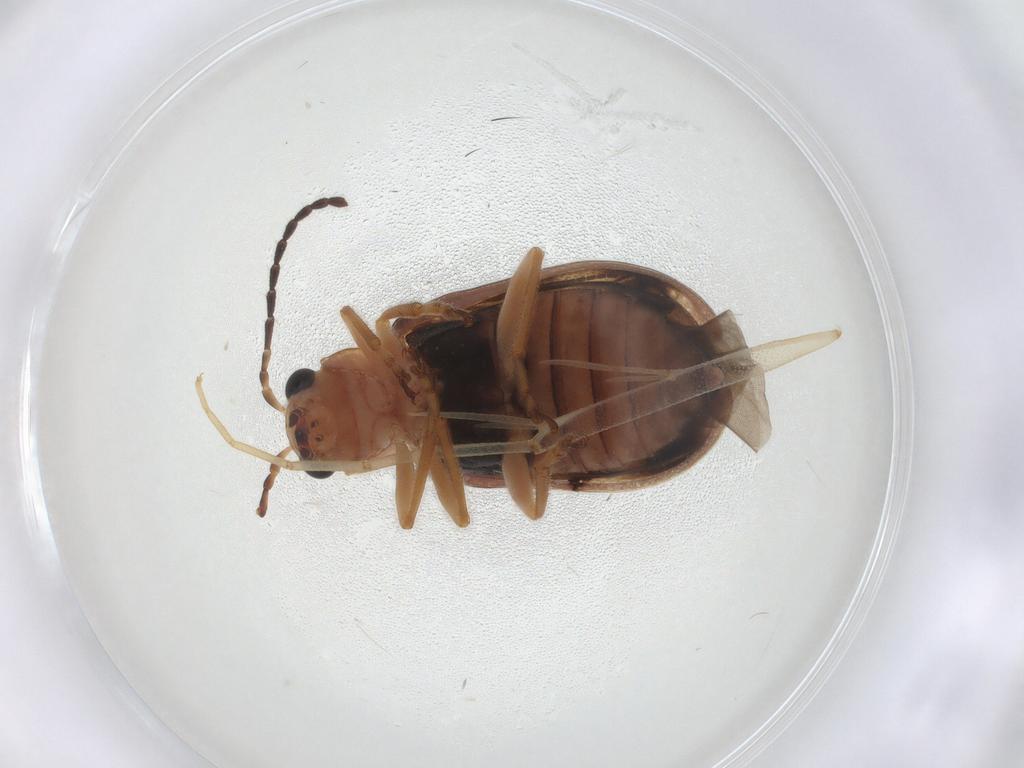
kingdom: Animalia
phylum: Arthropoda
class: Insecta
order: Coleoptera
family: Chrysomelidae
